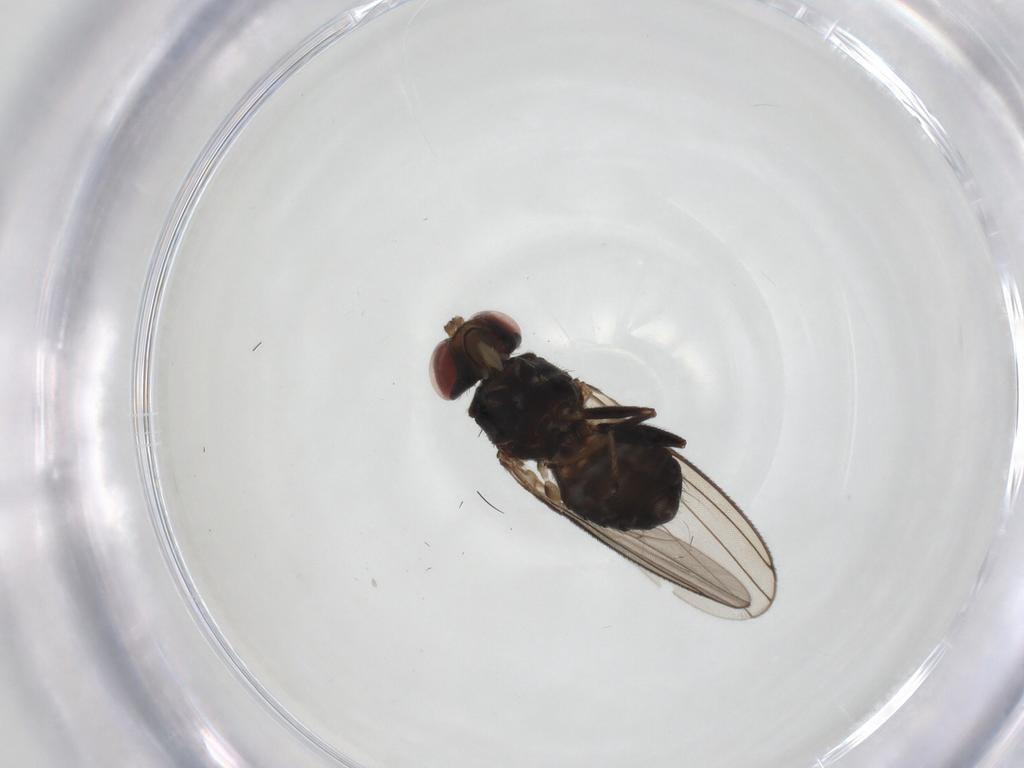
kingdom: Animalia
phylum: Arthropoda
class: Insecta
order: Diptera
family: Aulacigastridae
